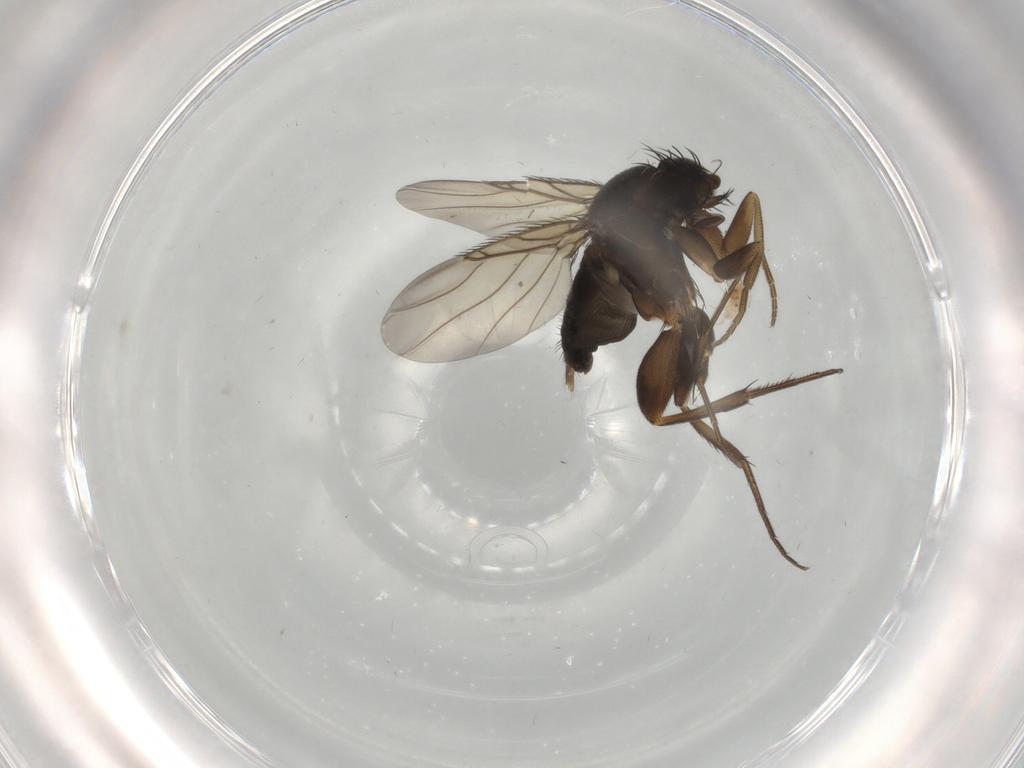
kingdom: Animalia
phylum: Arthropoda
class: Insecta
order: Diptera
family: Phoridae
